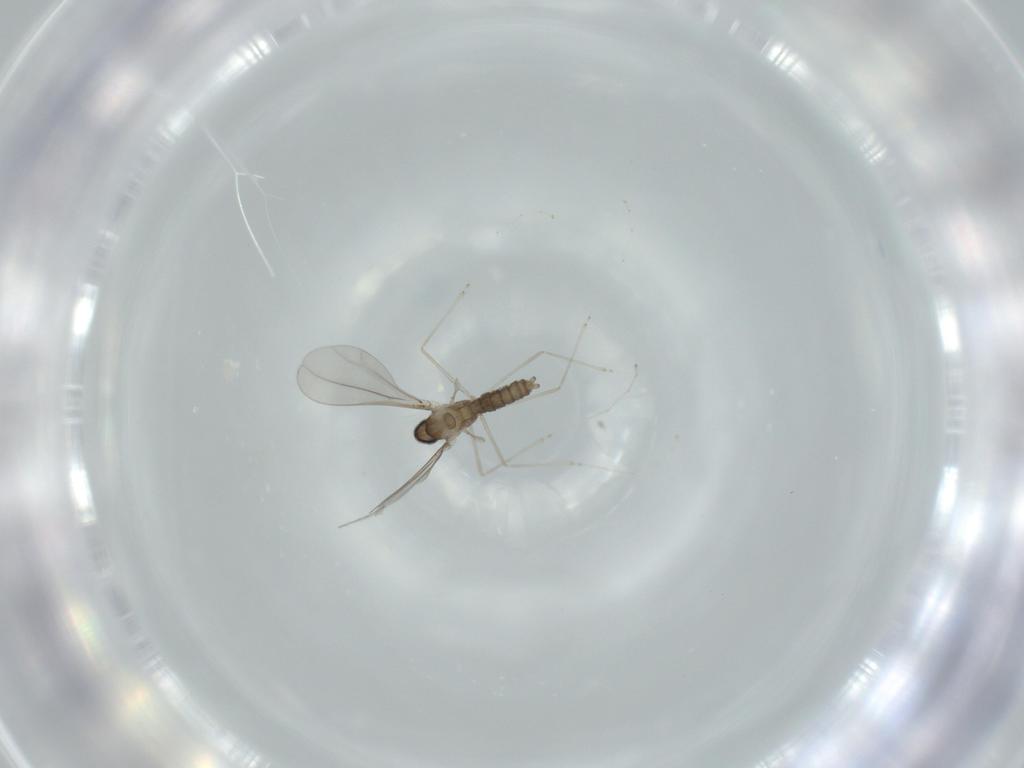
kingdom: Animalia
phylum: Arthropoda
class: Insecta
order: Diptera
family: Cecidomyiidae
